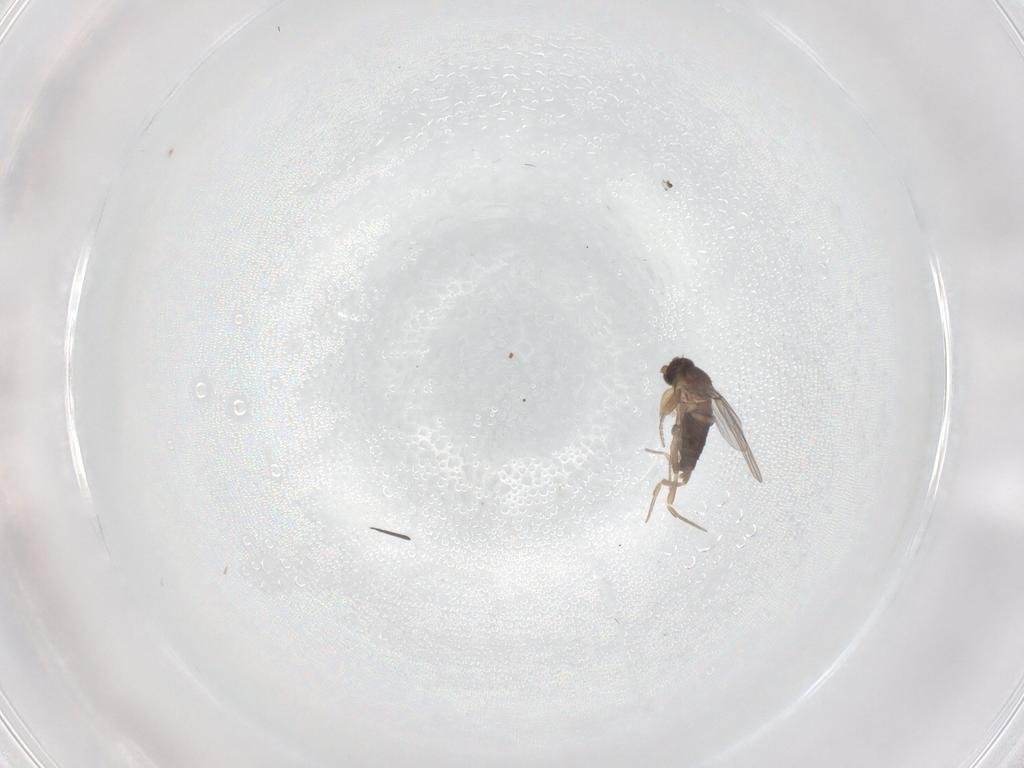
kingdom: Animalia
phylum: Arthropoda
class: Insecta
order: Diptera
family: Phoridae
